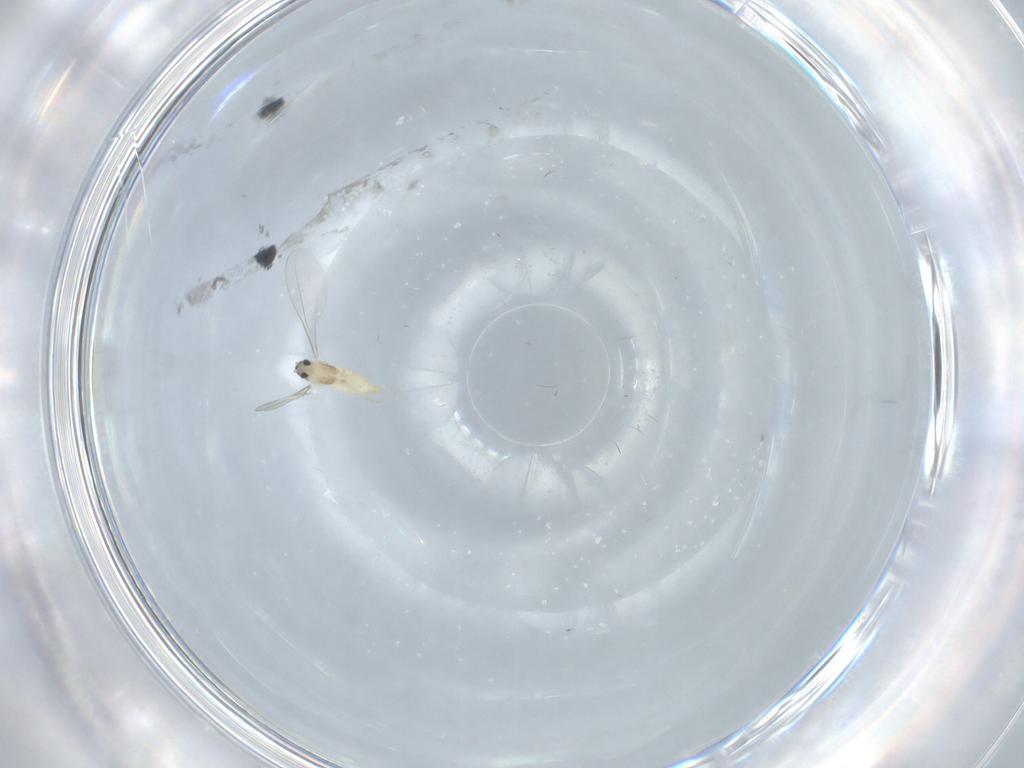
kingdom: Animalia
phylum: Arthropoda
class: Insecta
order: Diptera
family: Cecidomyiidae
